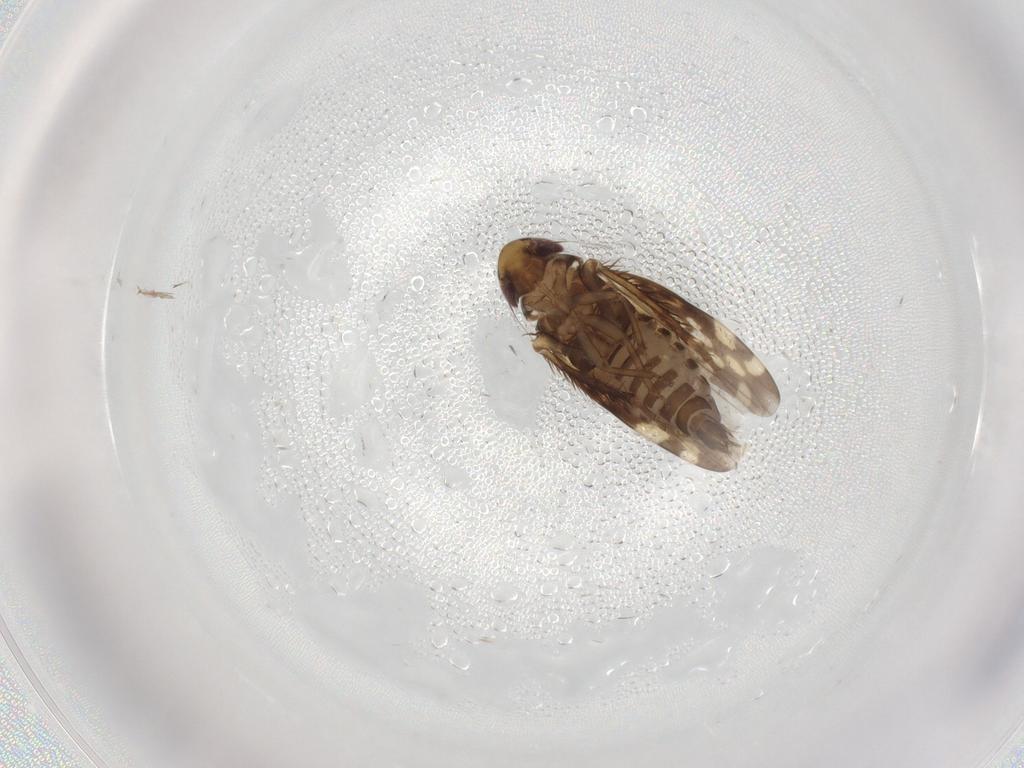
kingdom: Animalia
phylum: Arthropoda
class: Insecta
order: Hemiptera
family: Cicadellidae
